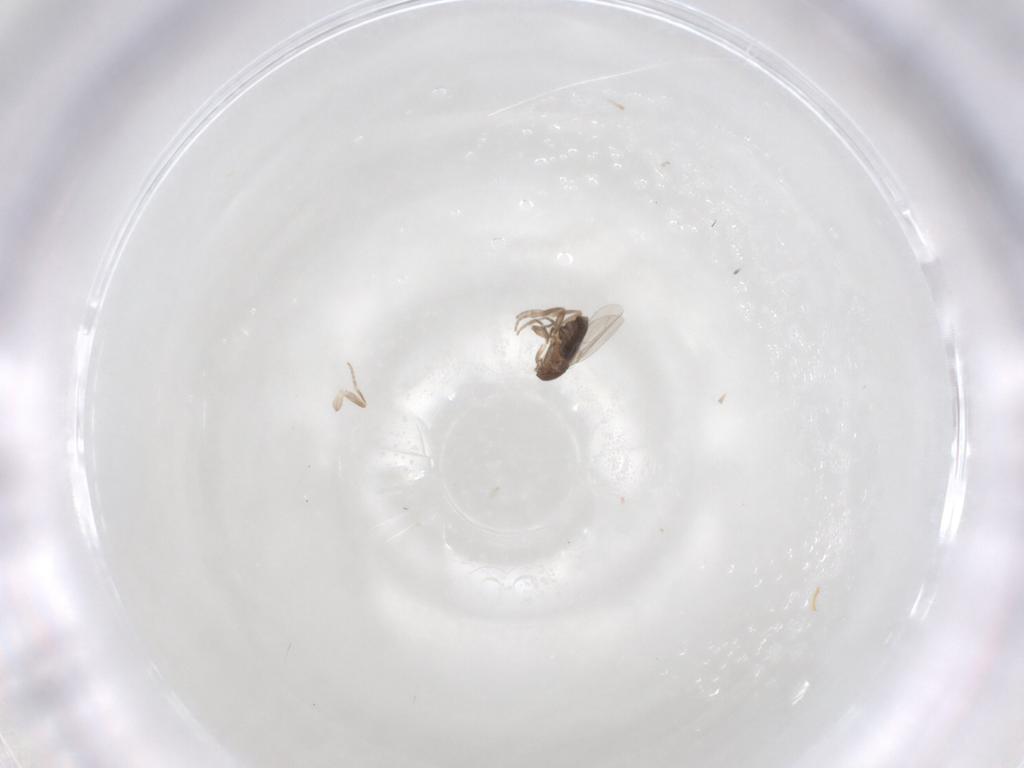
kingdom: Animalia
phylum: Arthropoda
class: Insecta
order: Diptera
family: Phoridae
